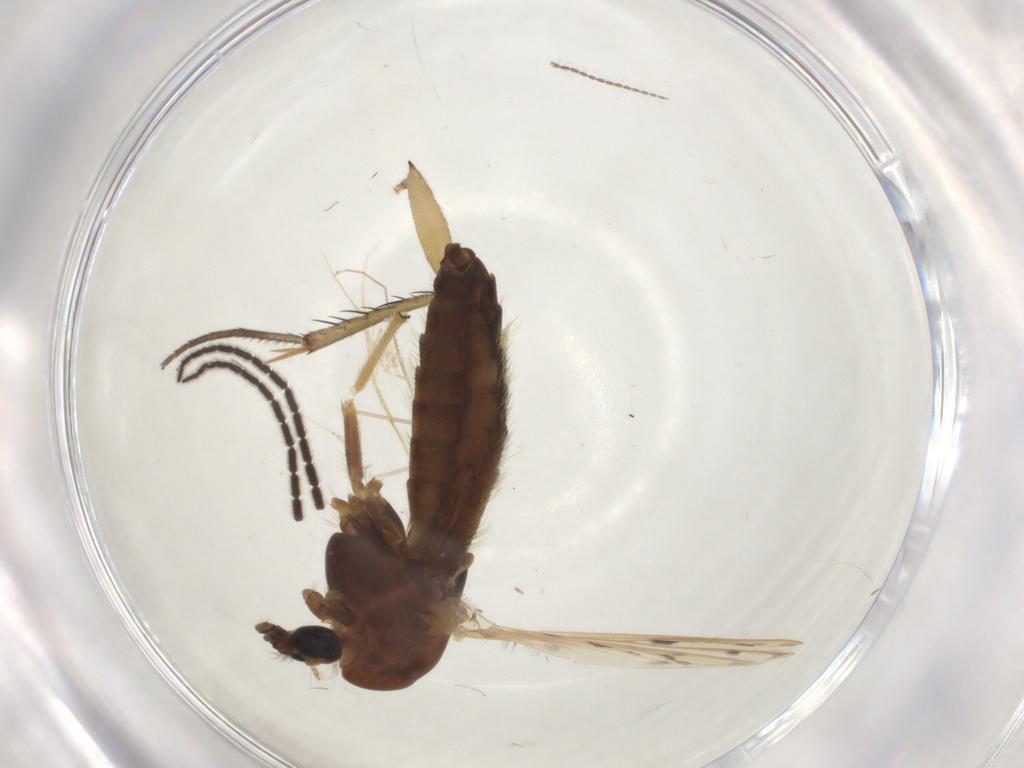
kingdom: Animalia
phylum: Arthropoda
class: Insecta
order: Diptera
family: Chironomidae
